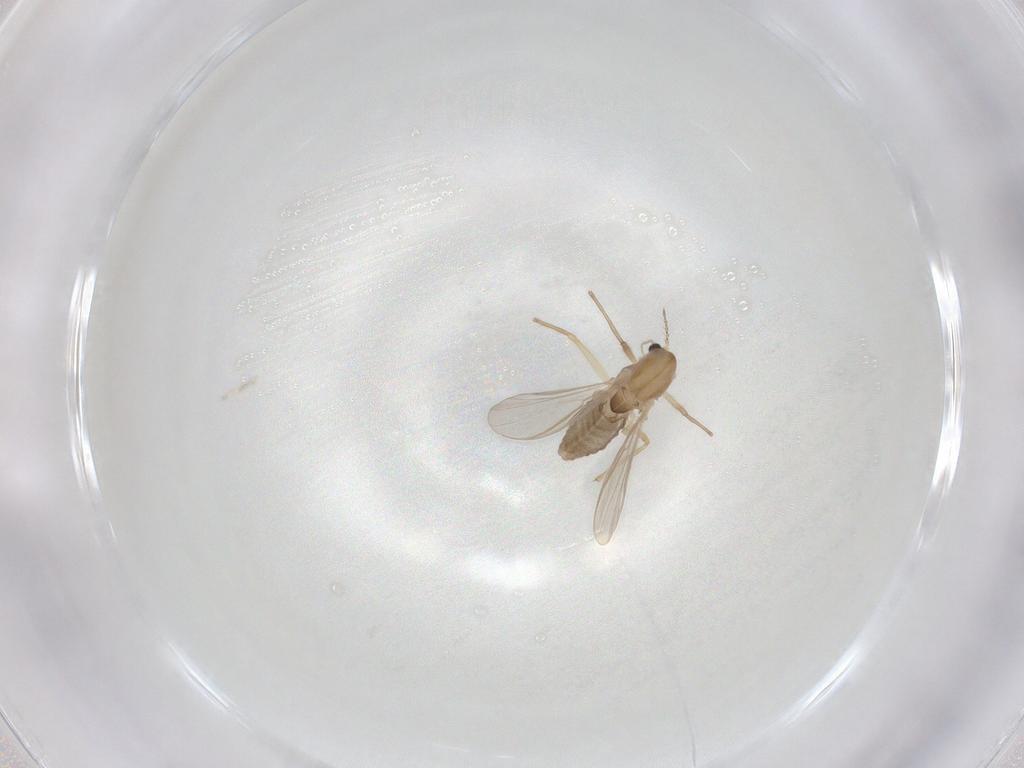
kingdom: Animalia
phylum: Arthropoda
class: Insecta
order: Diptera
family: Chironomidae
